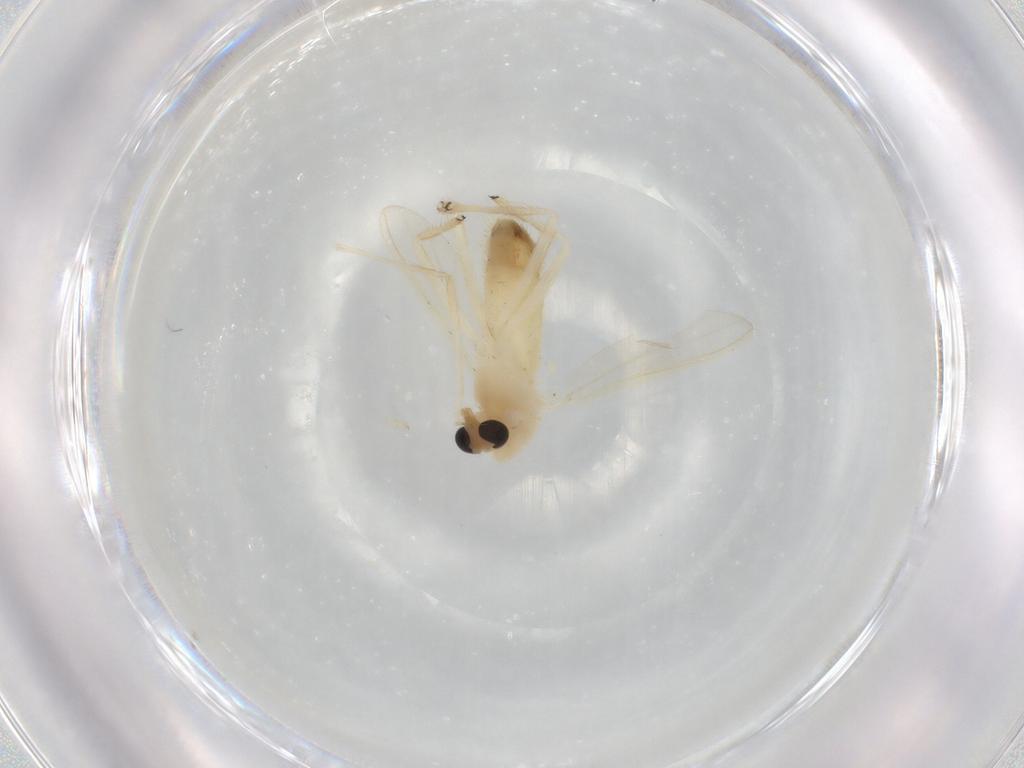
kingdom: Animalia
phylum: Arthropoda
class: Insecta
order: Diptera
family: Chironomidae
